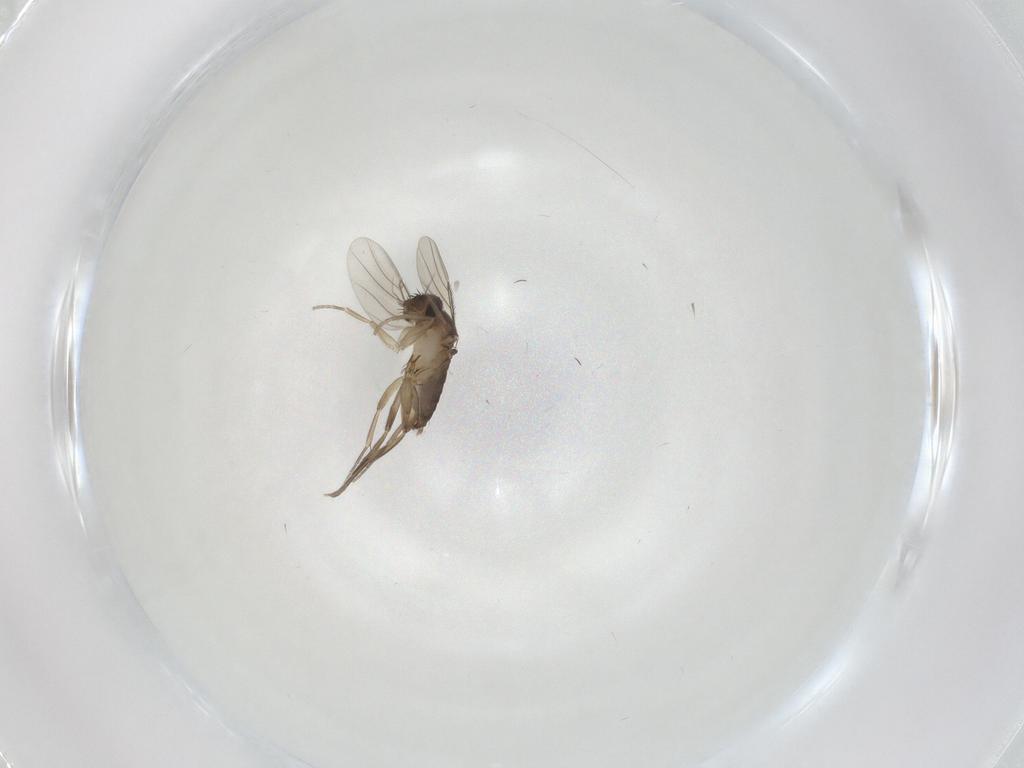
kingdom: Animalia
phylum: Arthropoda
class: Insecta
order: Diptera
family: Phoridae
